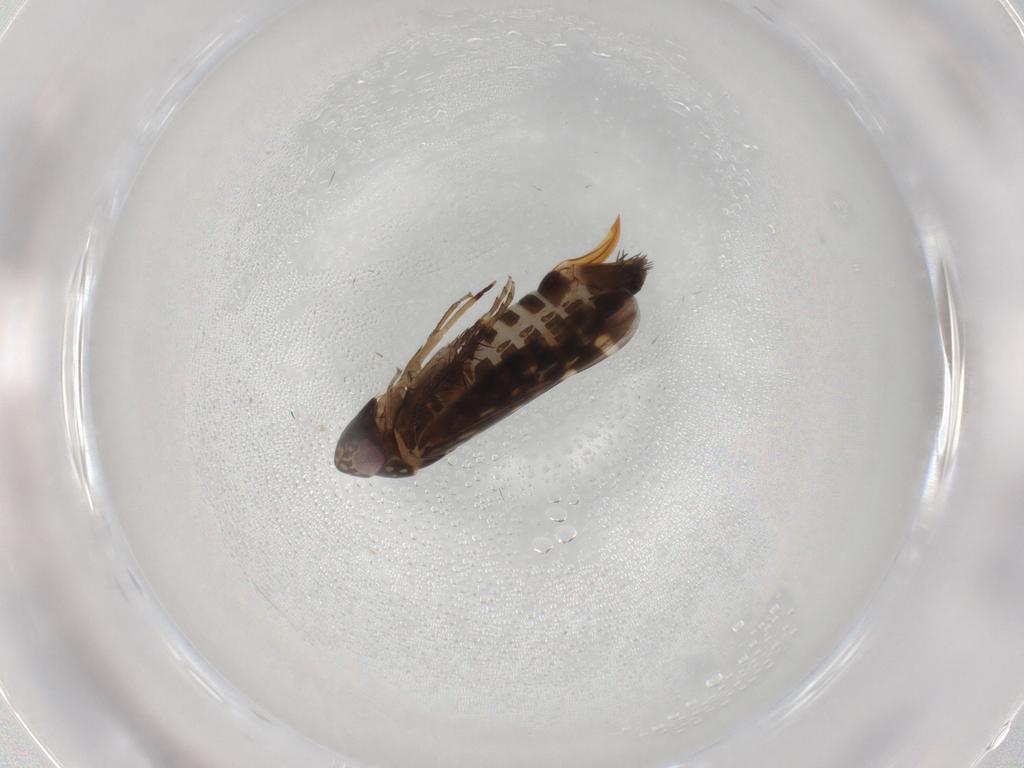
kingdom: Animalia
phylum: Arthropoda
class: Insecta
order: Hemiptera
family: Cicadellidae
